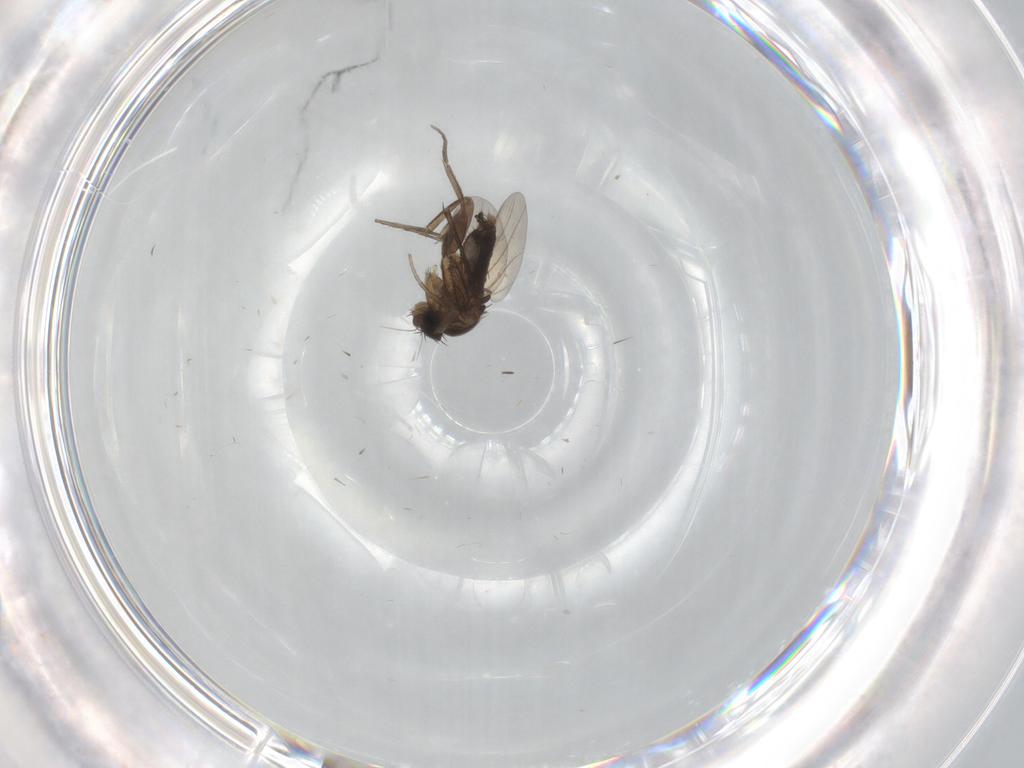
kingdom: Animalia
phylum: Arthropoda
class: Insecta
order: Diptera
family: Phoridae
